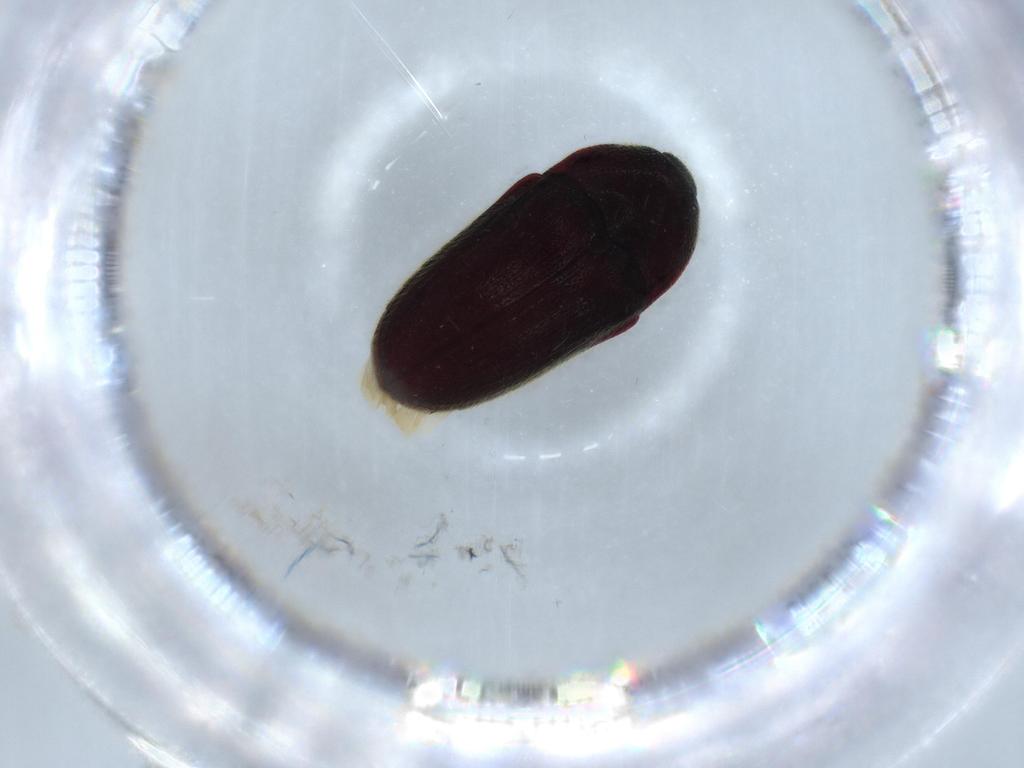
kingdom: Animalia
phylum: Arthropoda
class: Insecta
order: Coleoptera
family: Throscidae
